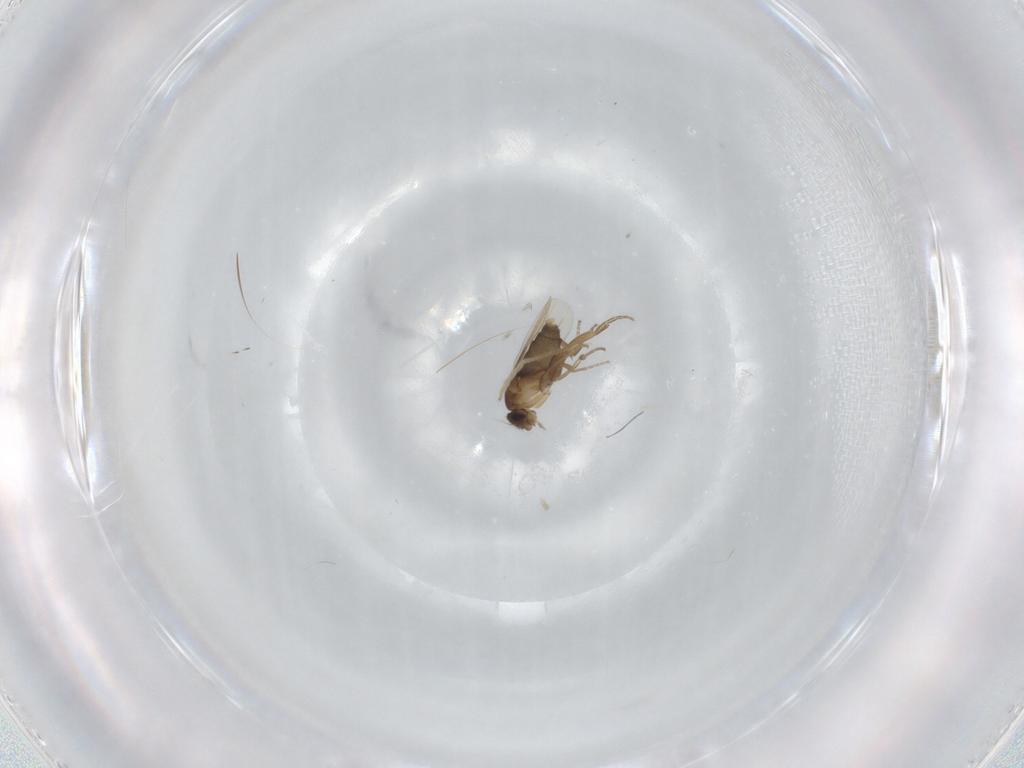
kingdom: Animalia
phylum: Arthropoda
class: Insecta
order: Diptera
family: Phoridae
